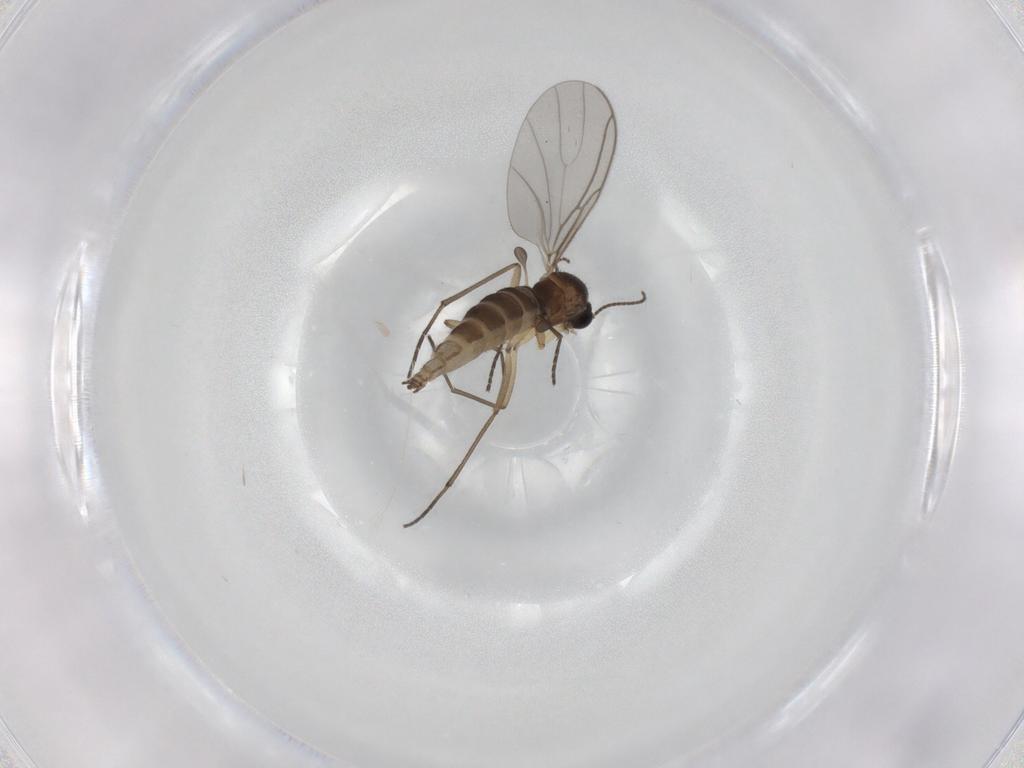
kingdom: Animalia
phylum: Arthropoda
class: Insecta
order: Diptera
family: Sciaridae
